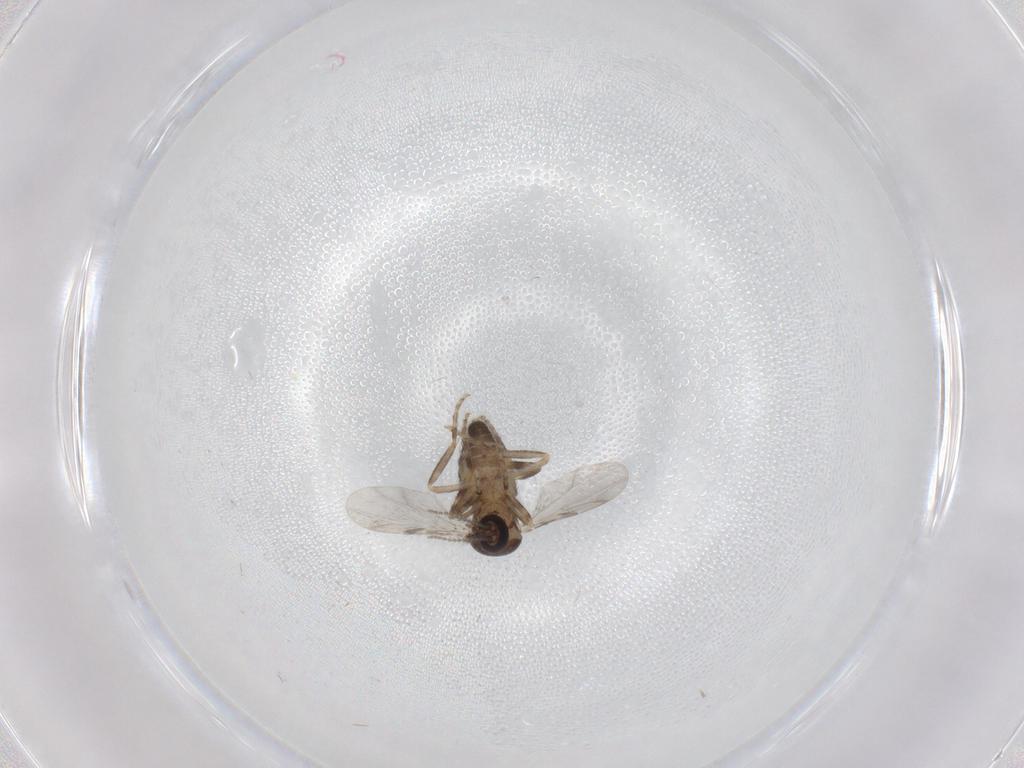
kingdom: Animalia
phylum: Arthropoda
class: Insecta
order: Diptera
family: Ceratopogonidae
